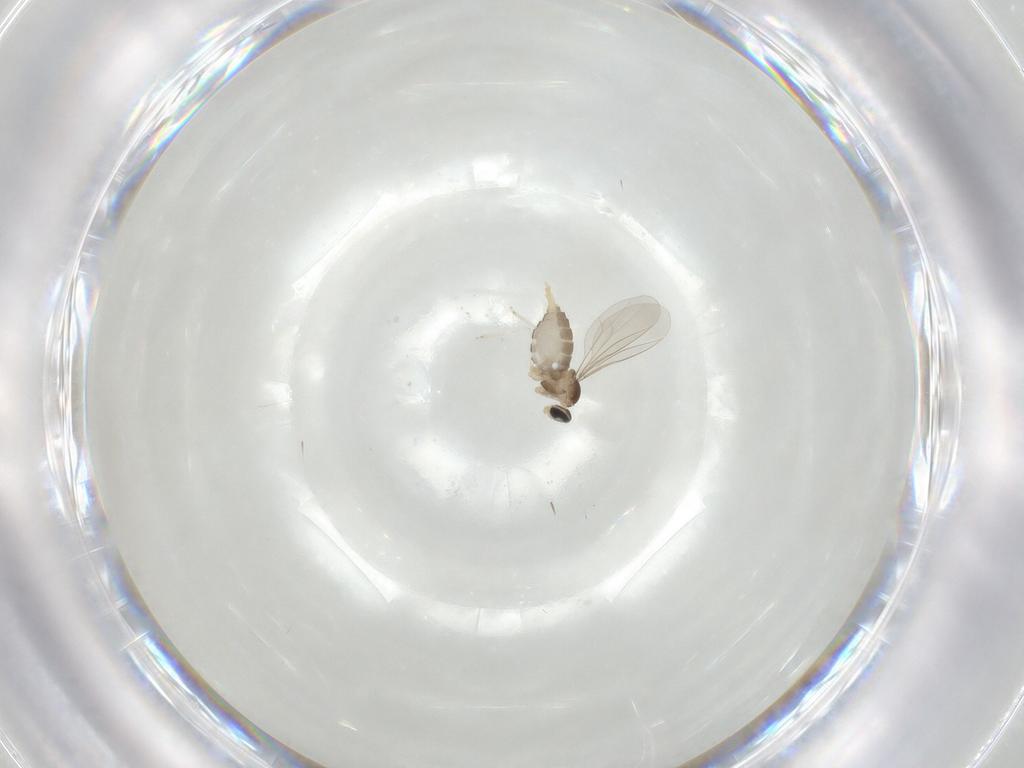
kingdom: Animalia
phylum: Arthropoda
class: Insecta
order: Diptera
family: Cecidomyiidae
